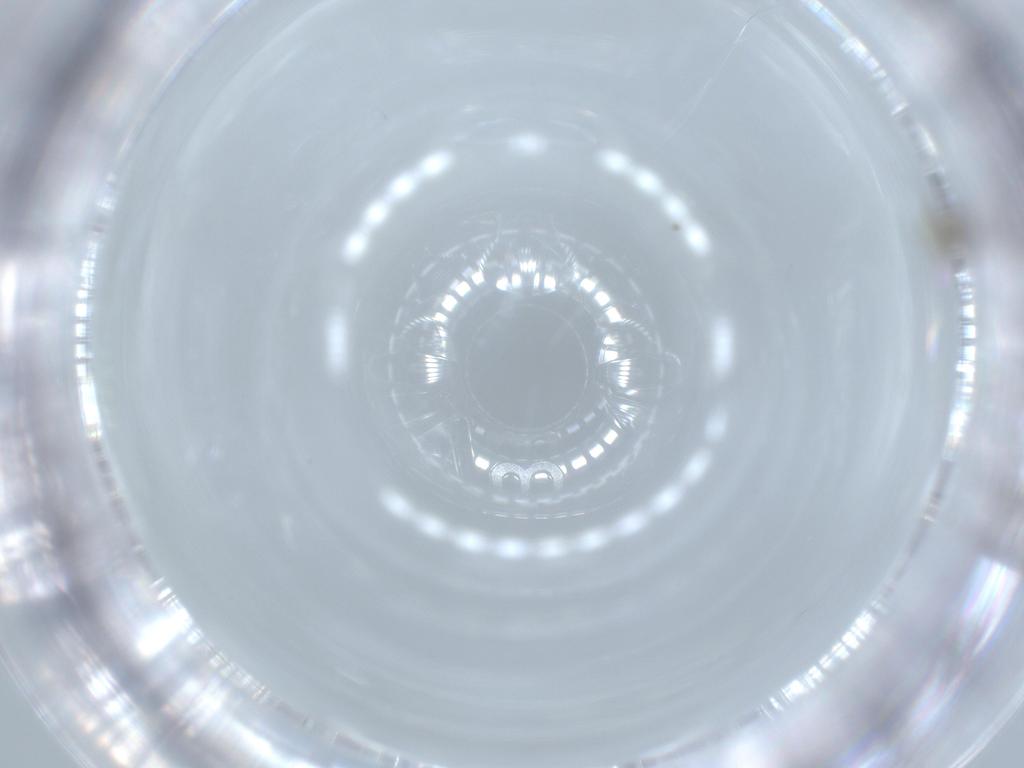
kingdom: Animalia
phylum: Arthropoda
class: Insecta
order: Diptera
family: Cecidomyiidae
